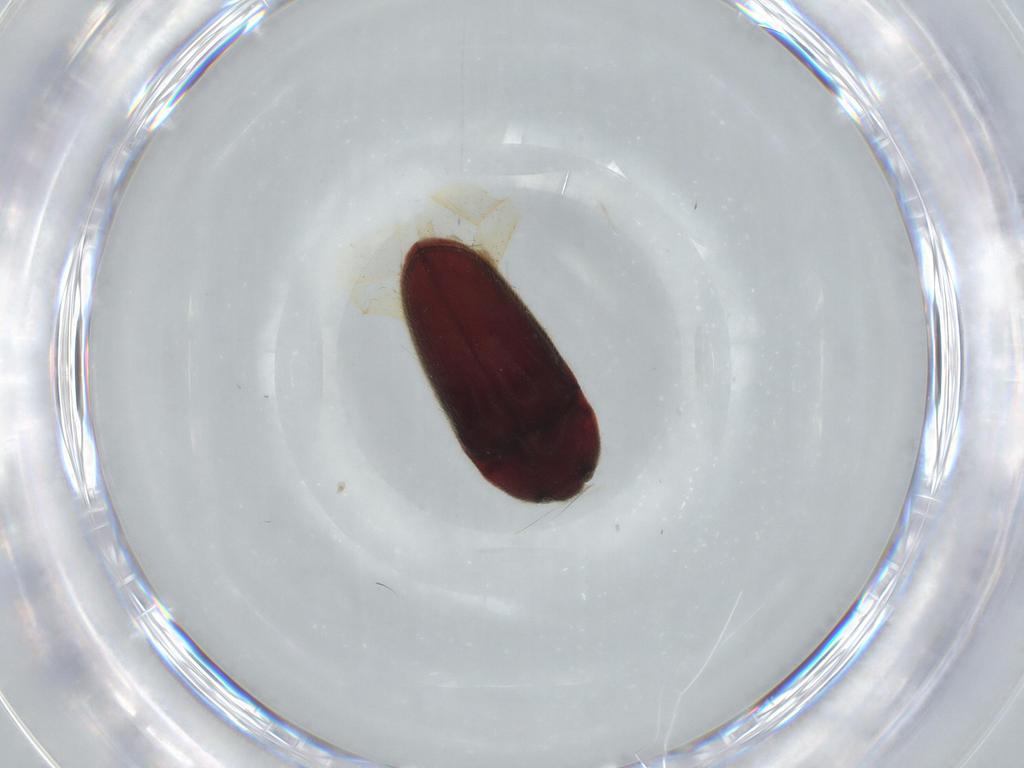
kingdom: Animalia
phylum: Arthropoda
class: Insecta
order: Coleoptera
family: Throscidae
